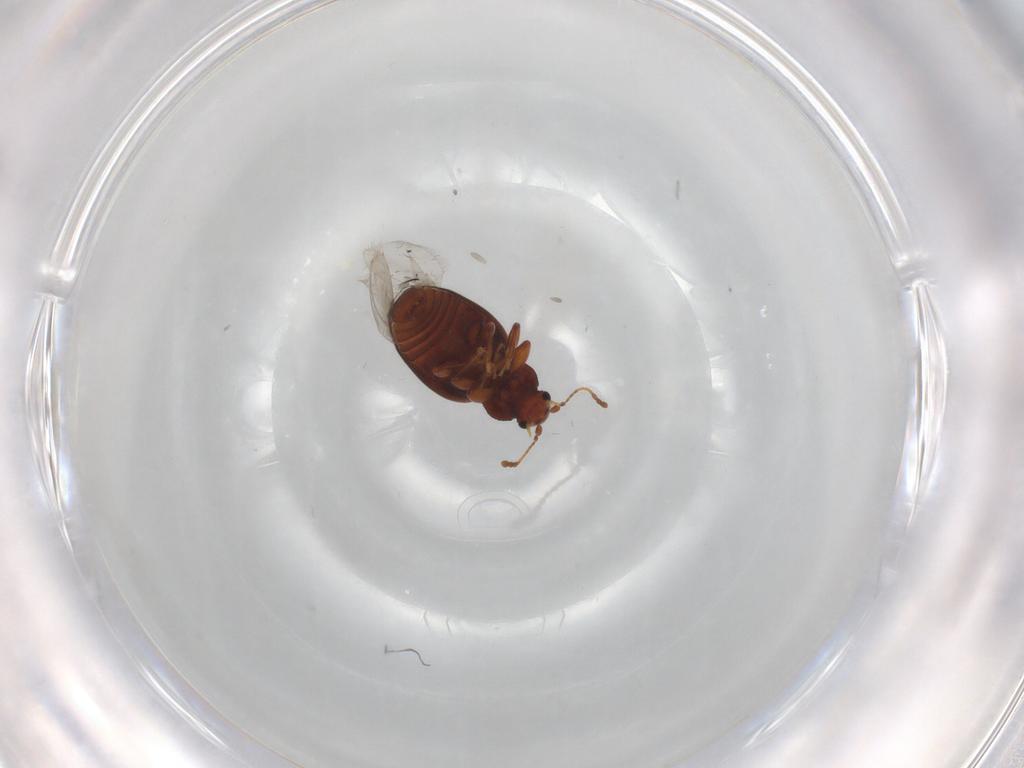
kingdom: Animalia
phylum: Arthropoda
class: Insecta
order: Coleoptera
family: Latridiidae
